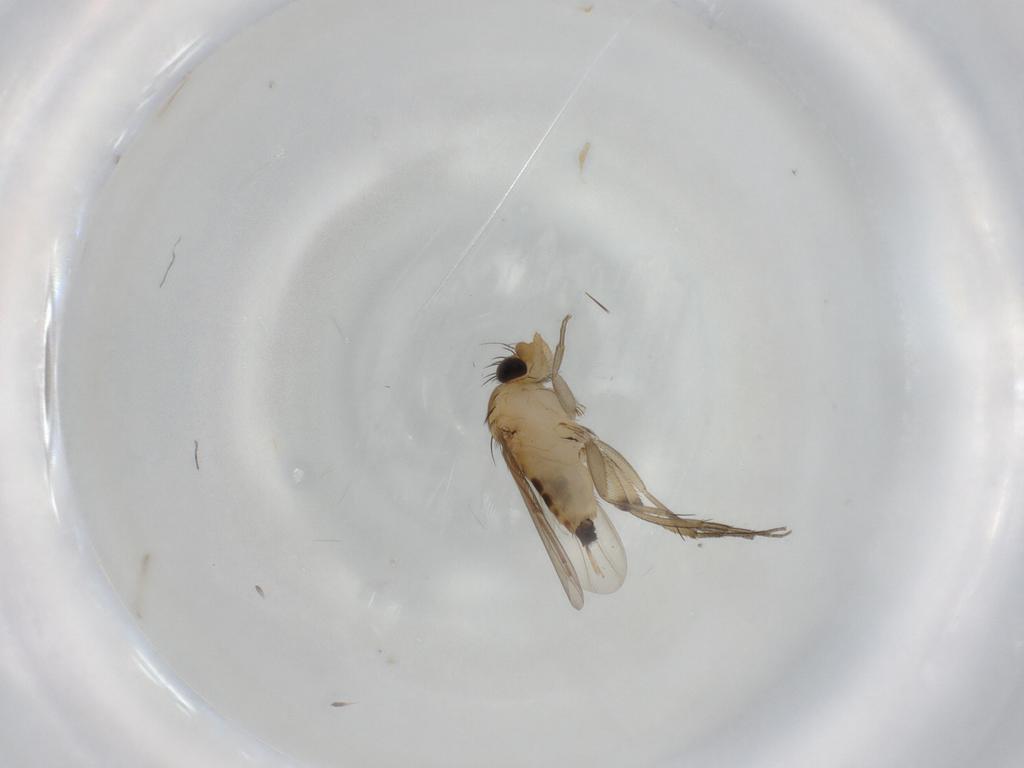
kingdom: Animalia
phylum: Arthropoda
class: Insecta
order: Diptera
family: Phoridae
